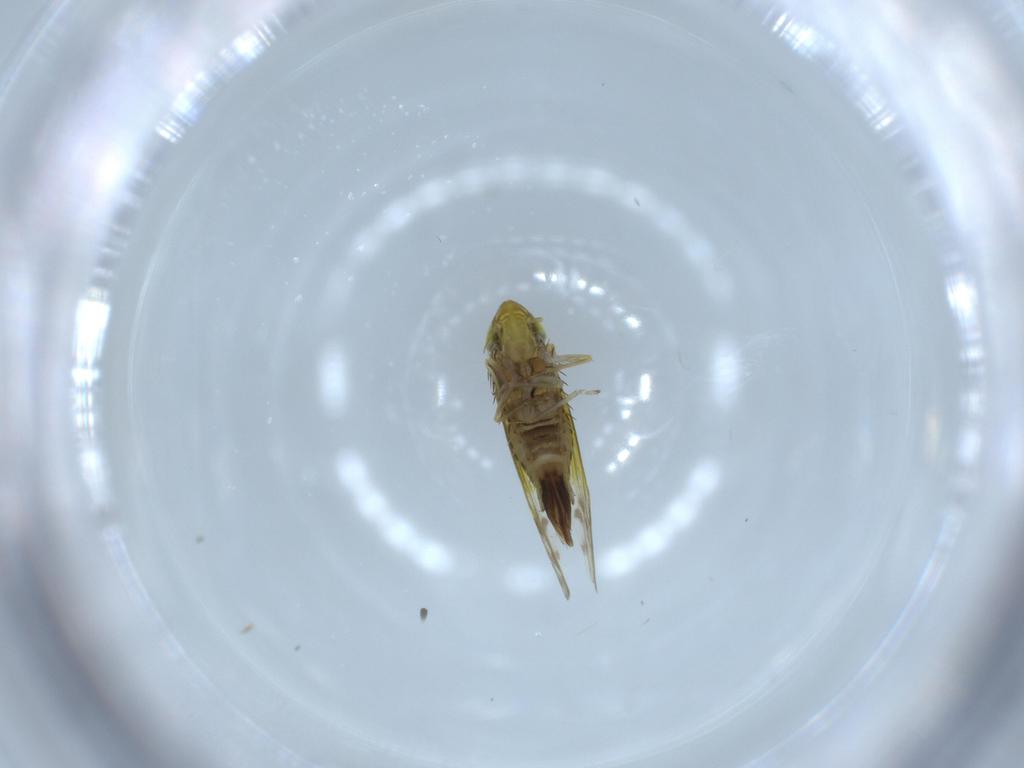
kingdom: Animalia
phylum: Arthropoda
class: Insecta
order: Hemiptera
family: Cicadellidae
